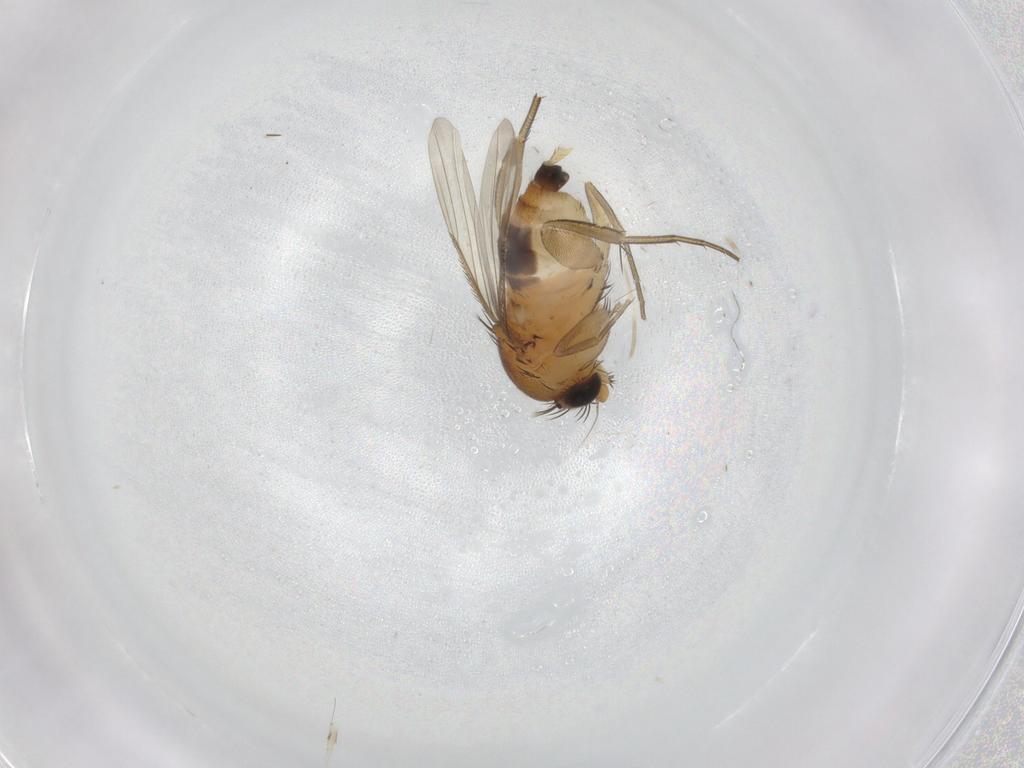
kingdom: Animalia
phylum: Arthropoda
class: Insecta
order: Diptera
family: Cecidomyiidae
